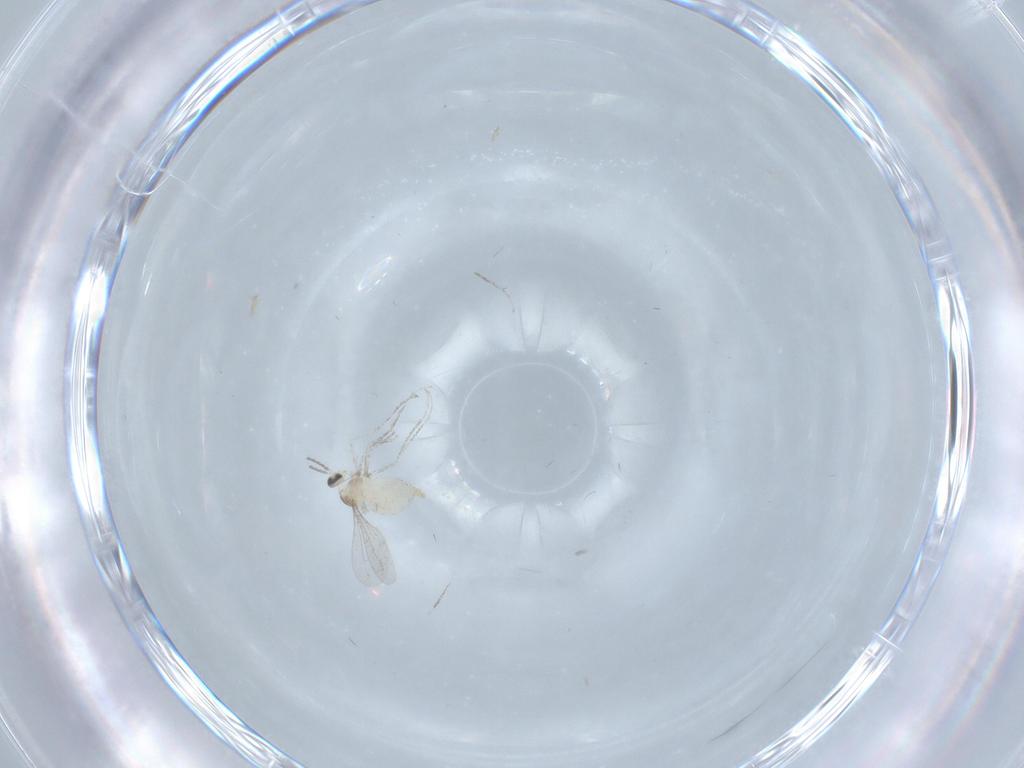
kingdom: Animalia
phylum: Arthropoda
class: Insecta
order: Diptera
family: Cecidomyiidae
